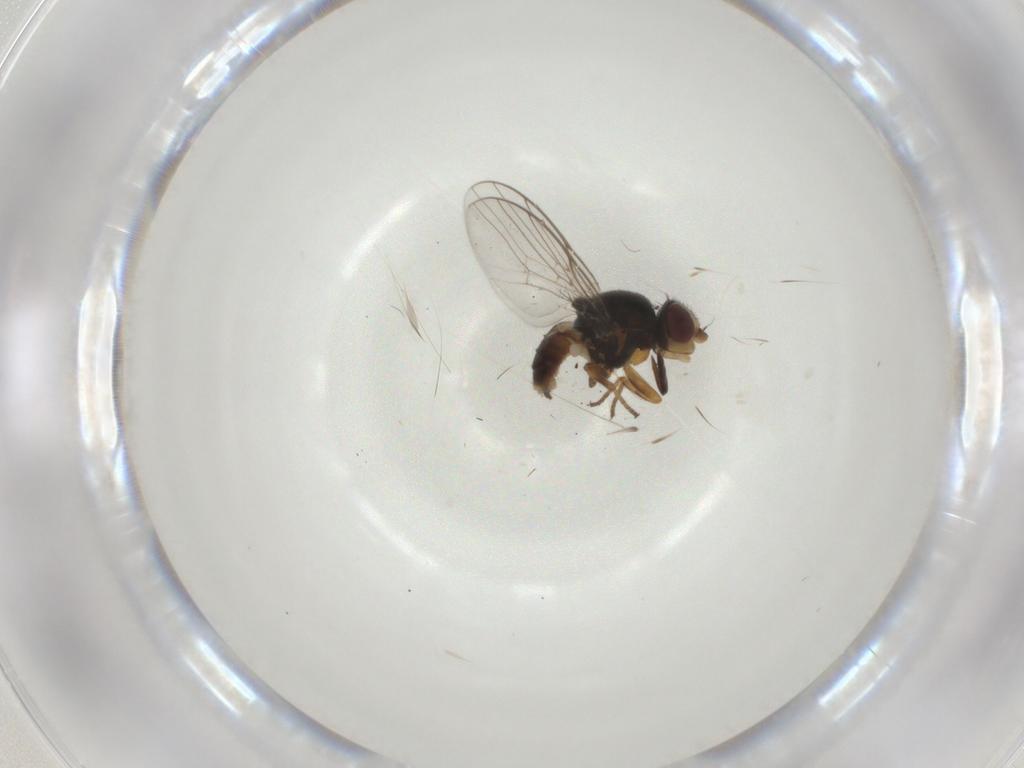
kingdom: Animalia
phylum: Arthropoda
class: Insecta
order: Diptera
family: Chloropidae
